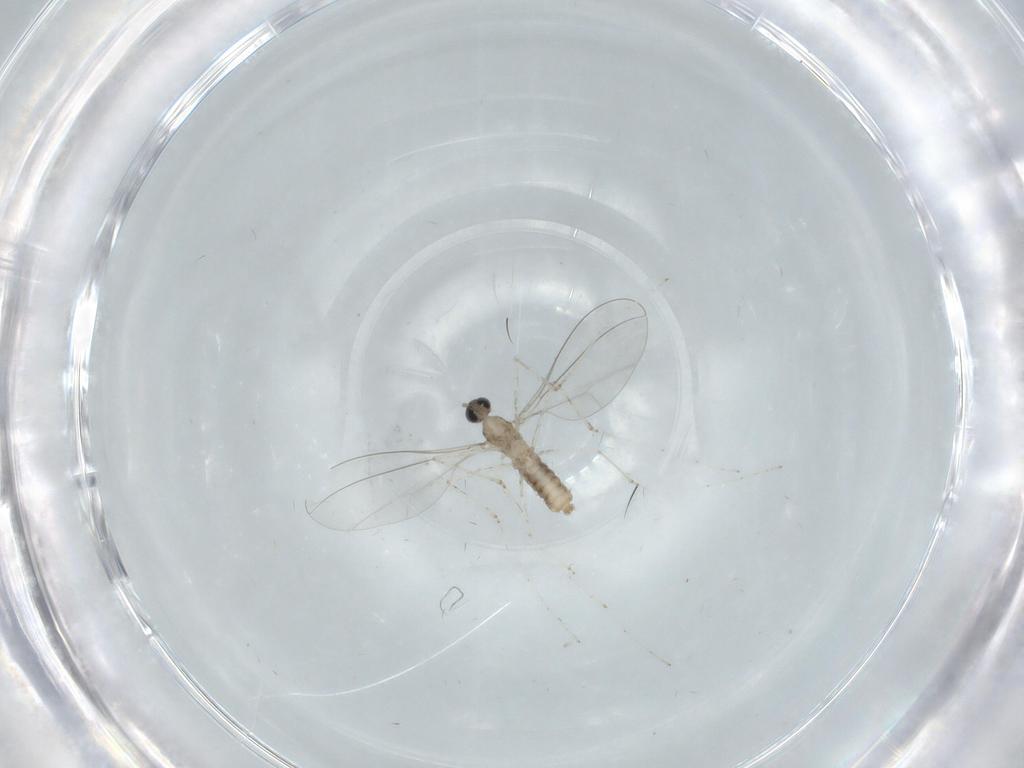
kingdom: Animalia
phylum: Arthropoda
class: Insecta
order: Diptera
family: Cecidomyiidae
